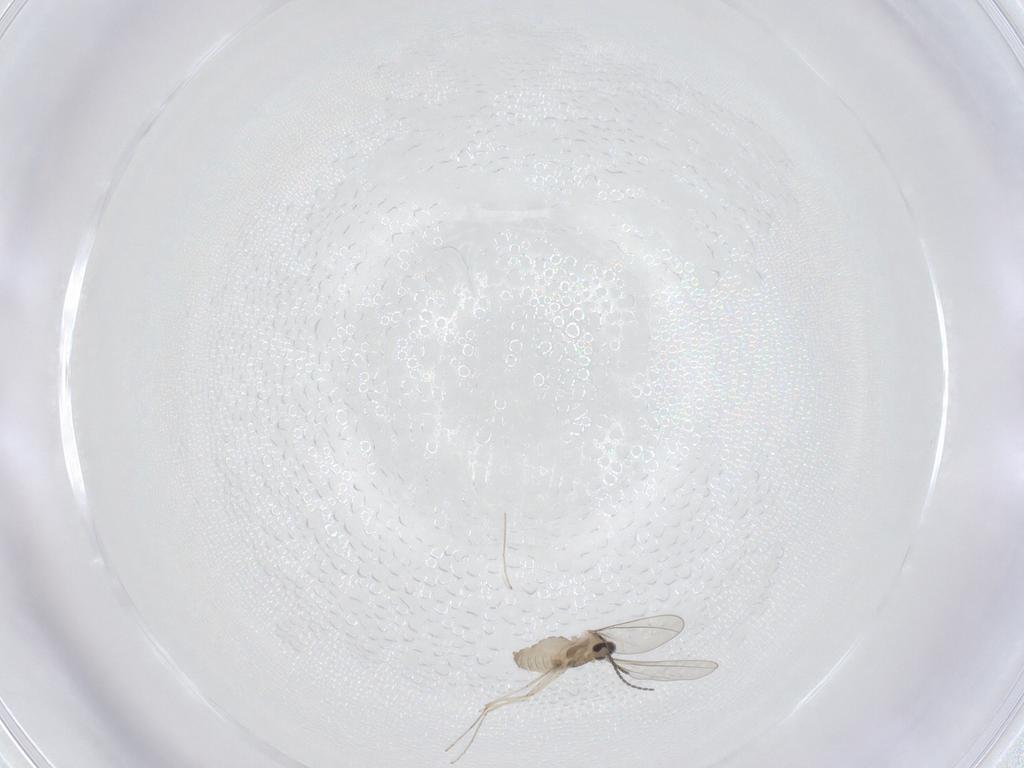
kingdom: Animalia
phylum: Arthropoda
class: Insecta
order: Diptera
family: Cecidomyiidae
